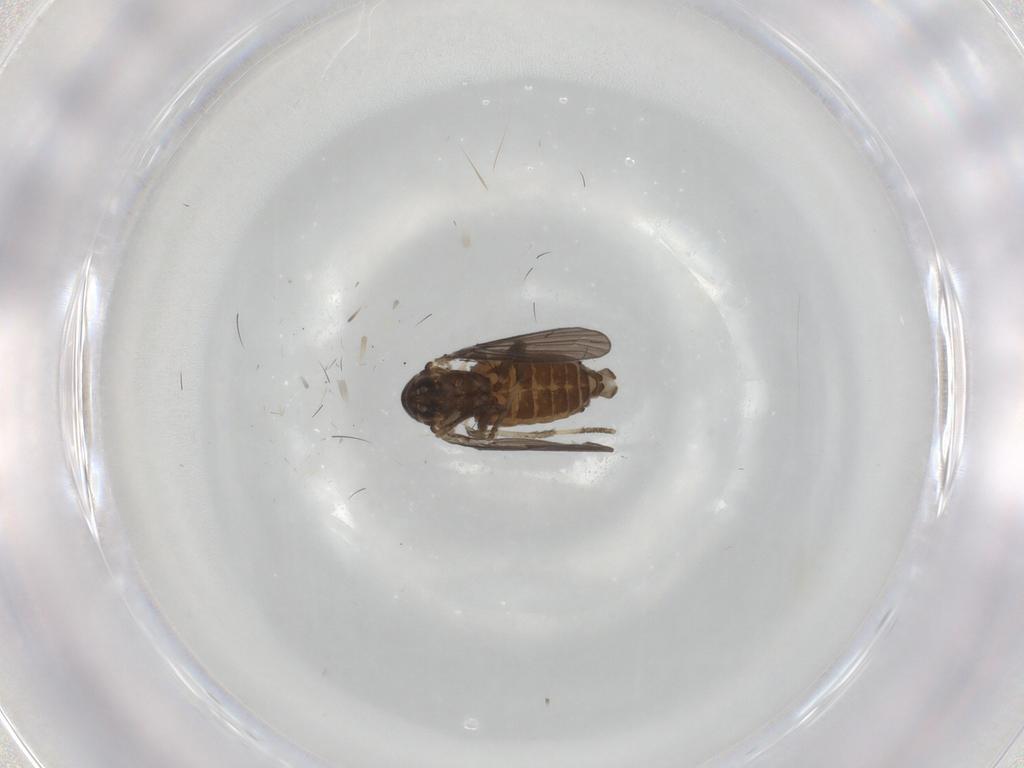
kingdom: Animalia
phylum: Arthropoda
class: Insecta
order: Diptera
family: Psychodidae
